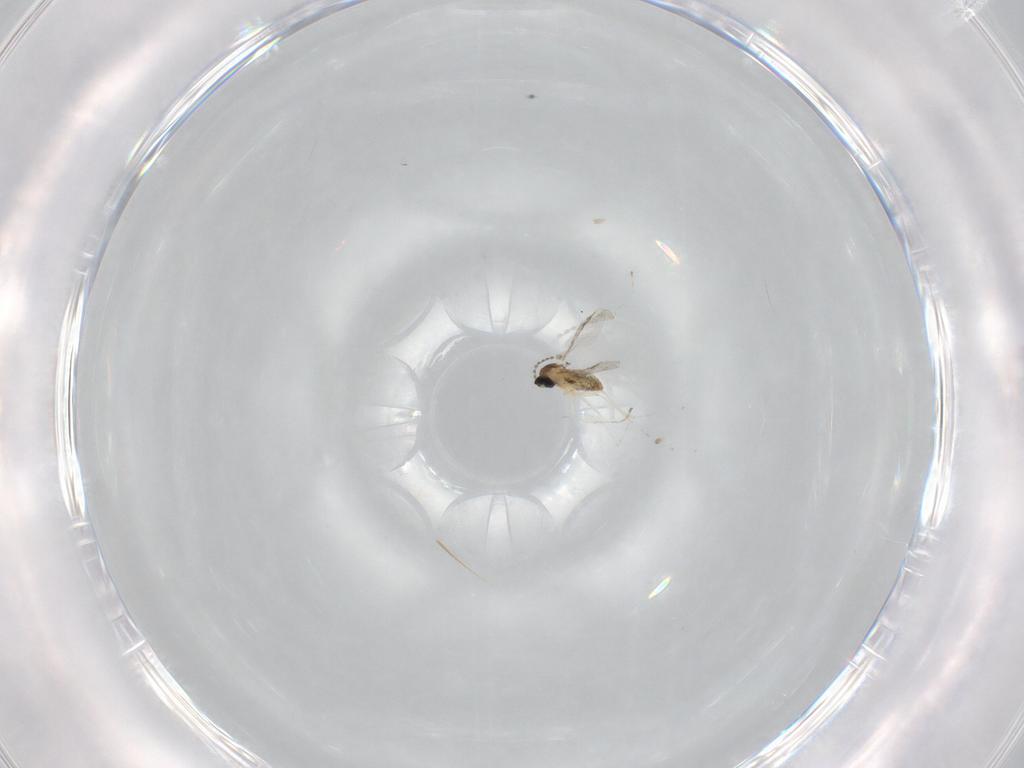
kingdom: Animalia
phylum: Arthropoda
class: Insecta
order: Diptera
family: Cecidomyiidae
